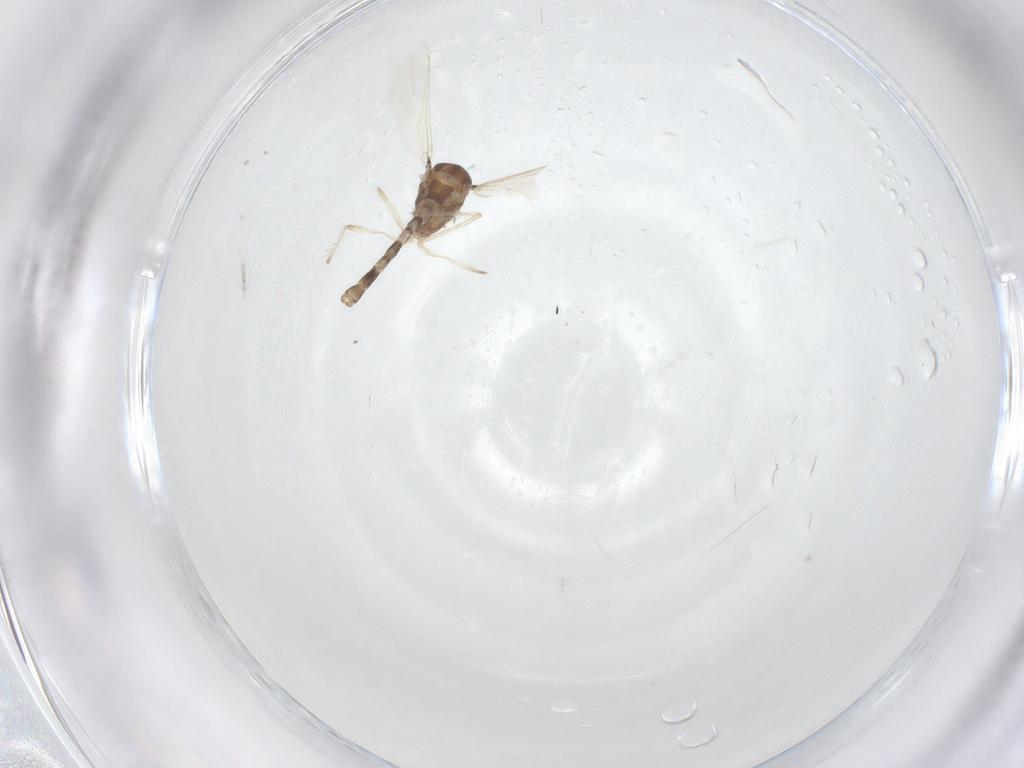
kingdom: Animalia
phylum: Arthropoda
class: Insecta
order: Diptera
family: Chironomidae
